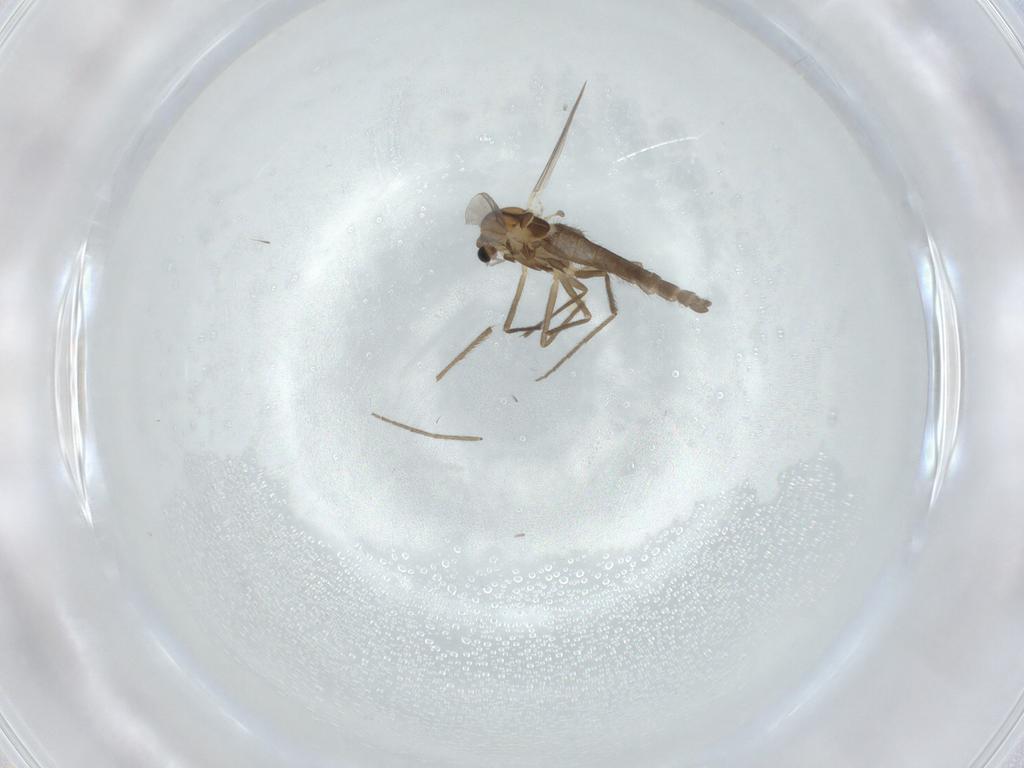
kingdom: Animalia
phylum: Arthropoda
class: Insecta
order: Diptera
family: Chironomidae
